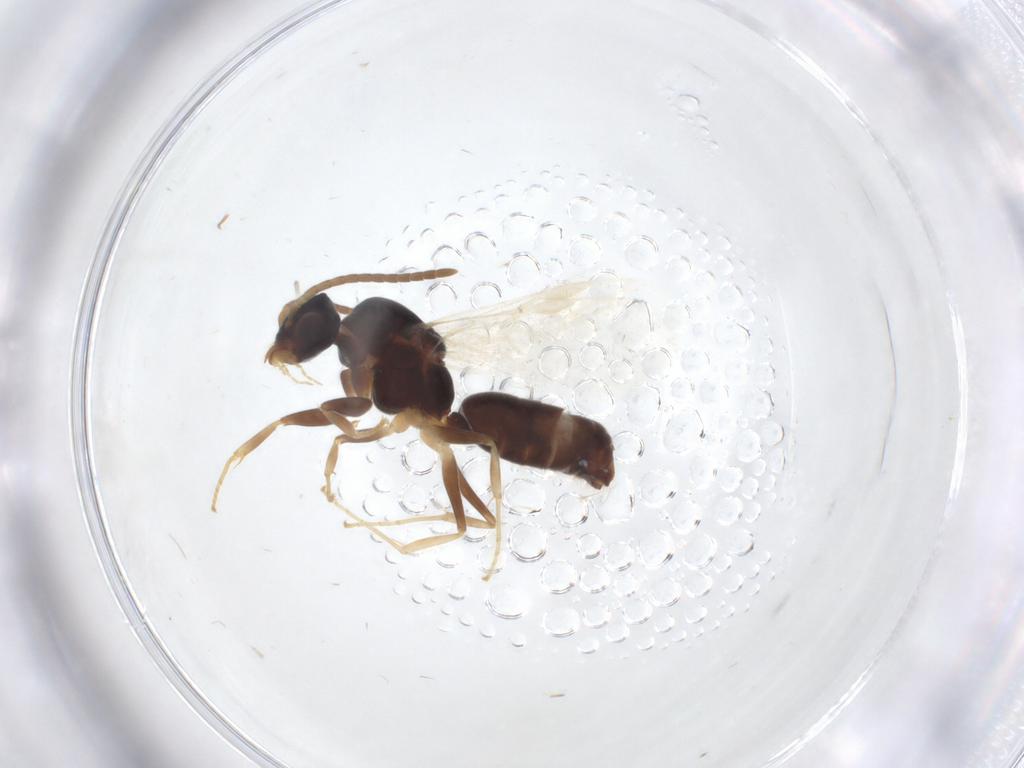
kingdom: Animalia
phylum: Arthropoda
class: Insecta
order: Hymenoptera
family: Formicidae
